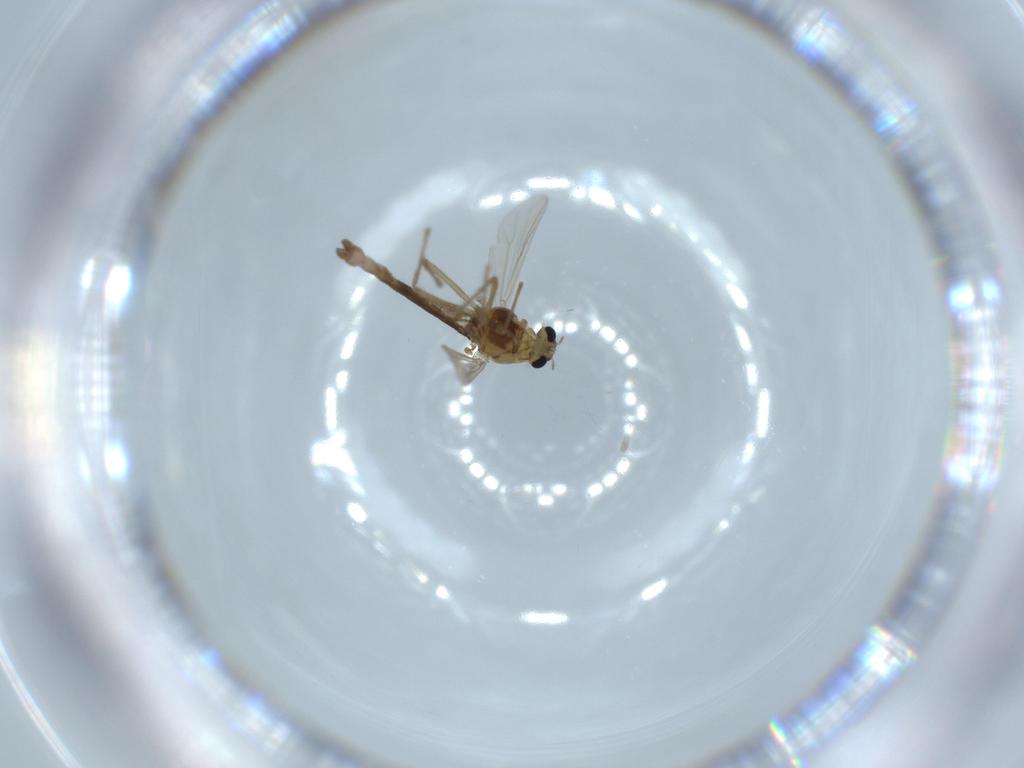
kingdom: Animalia
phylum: Arthropoda
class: Insecta
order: Diptera
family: Chironomidae
